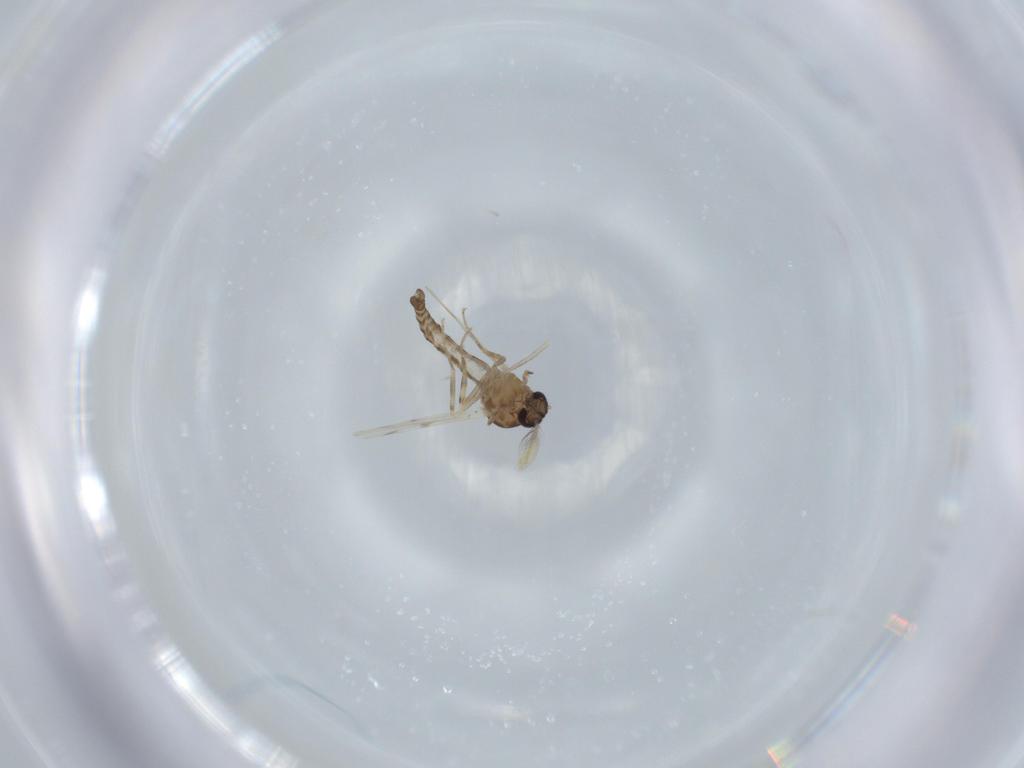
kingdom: Animalia
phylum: Arthropoda
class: Insecta
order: Diptera
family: Ceratopogonidae
